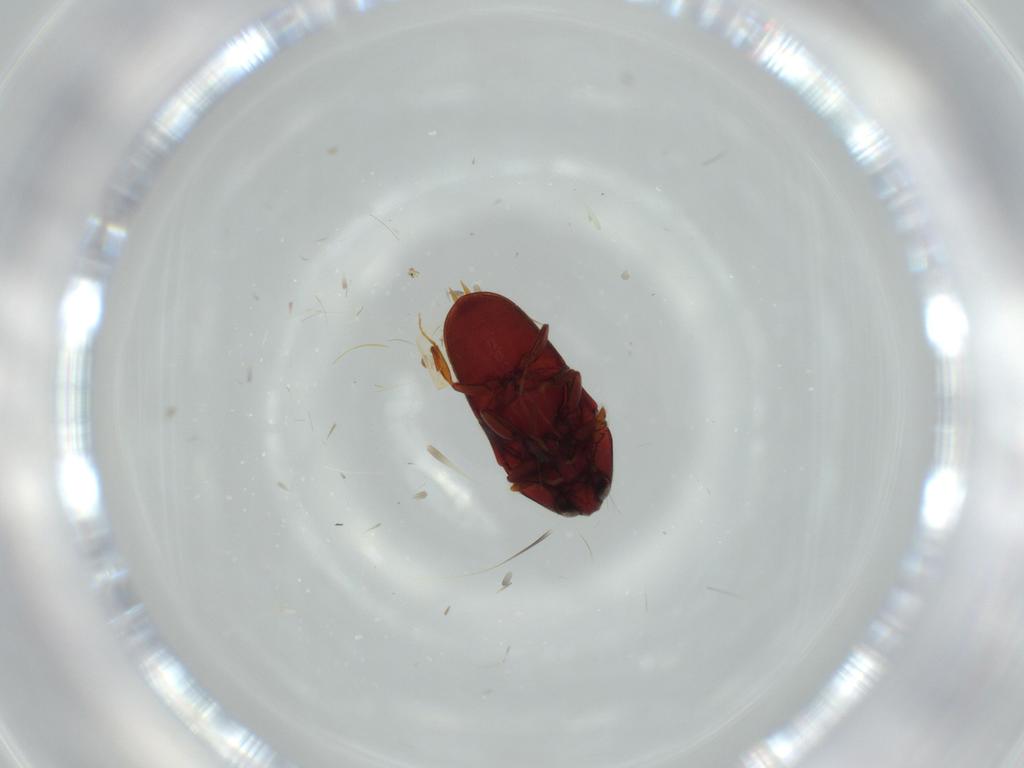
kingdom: Animalia
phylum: Arthropoda
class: Insecta
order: Coleoptera
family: Throscidae
